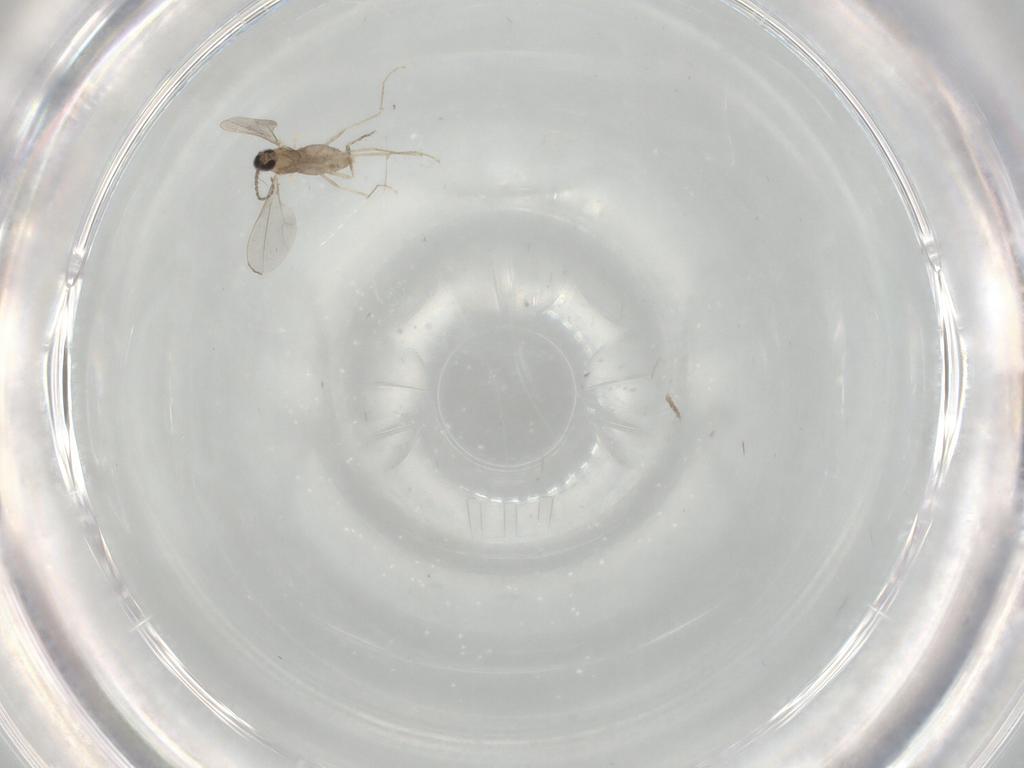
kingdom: Animalia
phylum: Arthropoda
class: Insecta
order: Diptera
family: Cecidomyiidae
